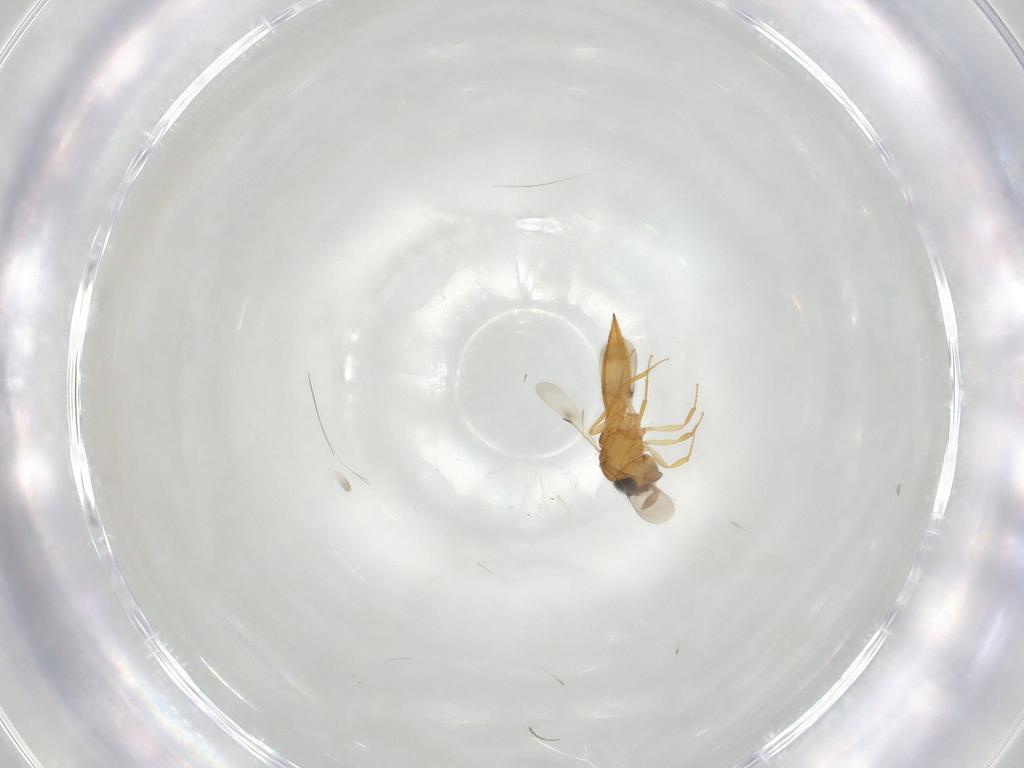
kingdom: Animalia
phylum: Arthropoda
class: Insecta
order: Hymenoptera
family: Scelionidae
